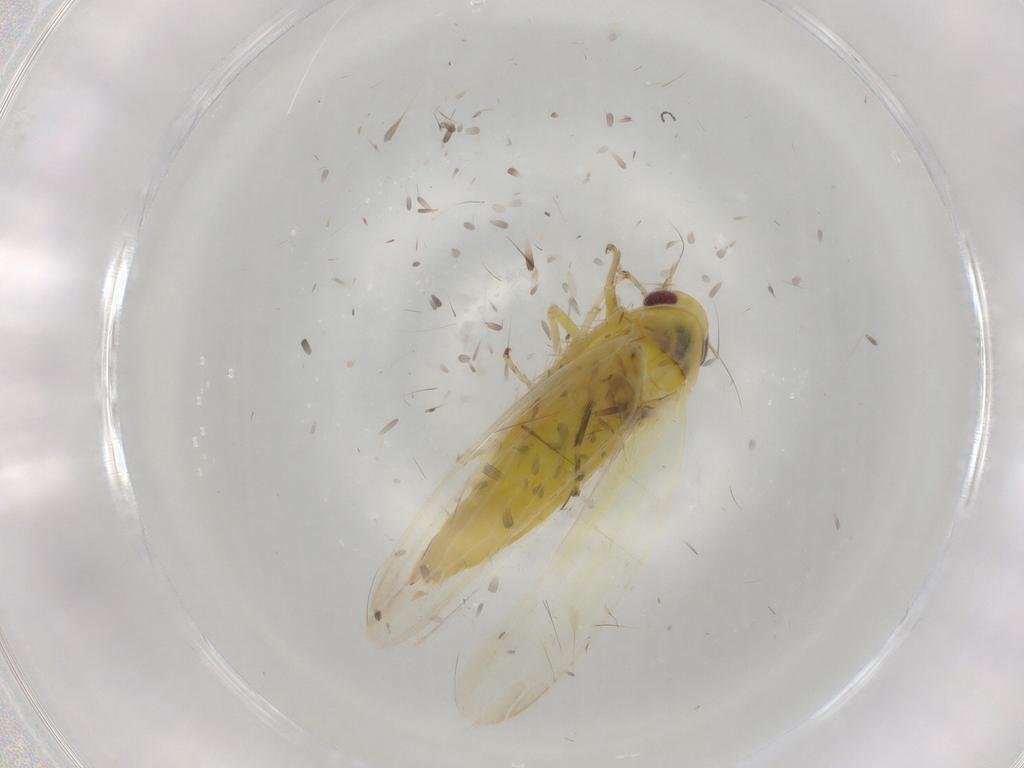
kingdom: Animalia
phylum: Arthropoda
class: Insecta
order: Hemiptera
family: Cicadellidae
